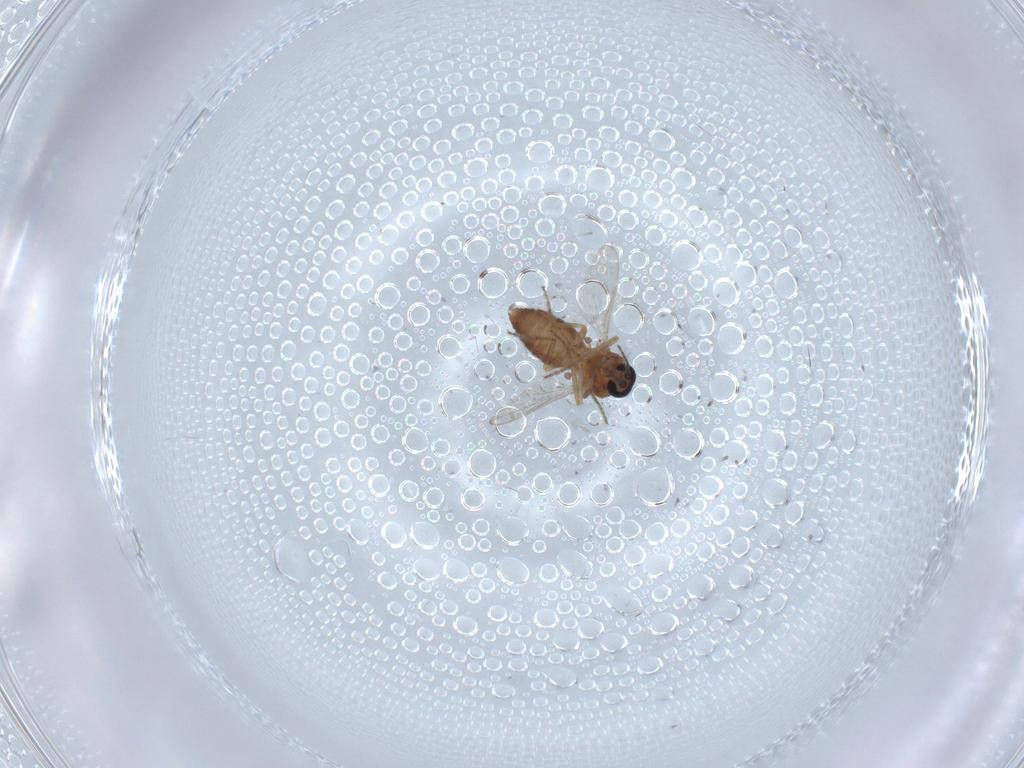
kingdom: Animalia
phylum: Arthropoda
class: Insecta
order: Diptera
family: Ceratopogonidae
